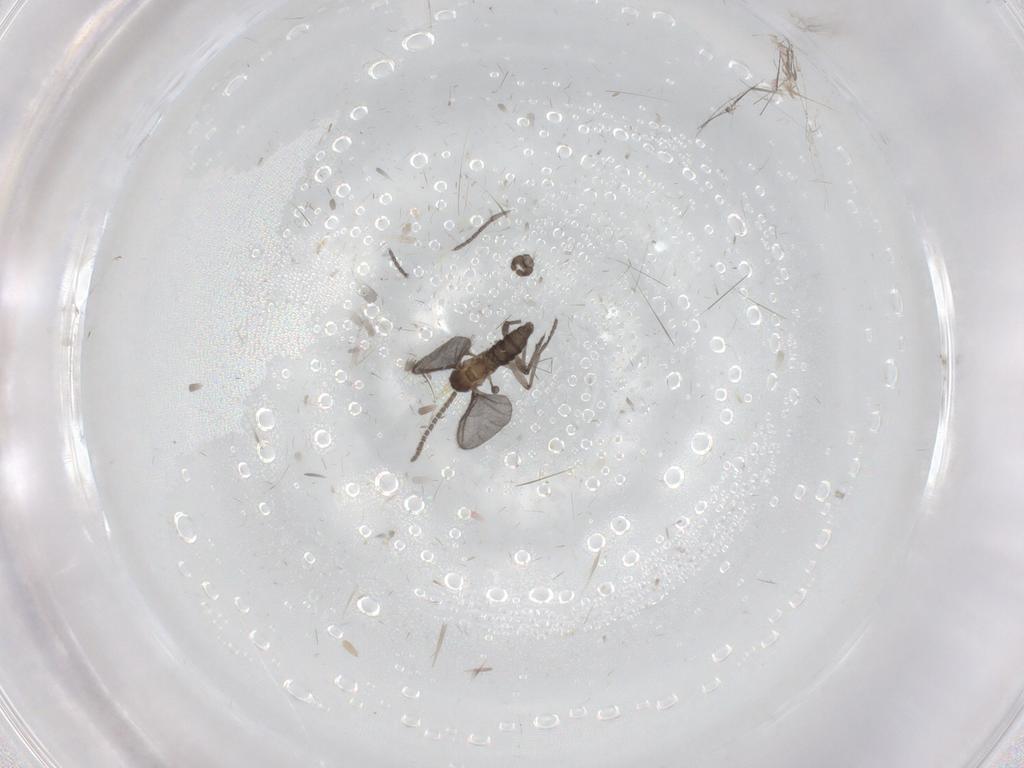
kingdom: Animalia
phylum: Arthropoda
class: Insecta
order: Diptera
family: Sciaridae
